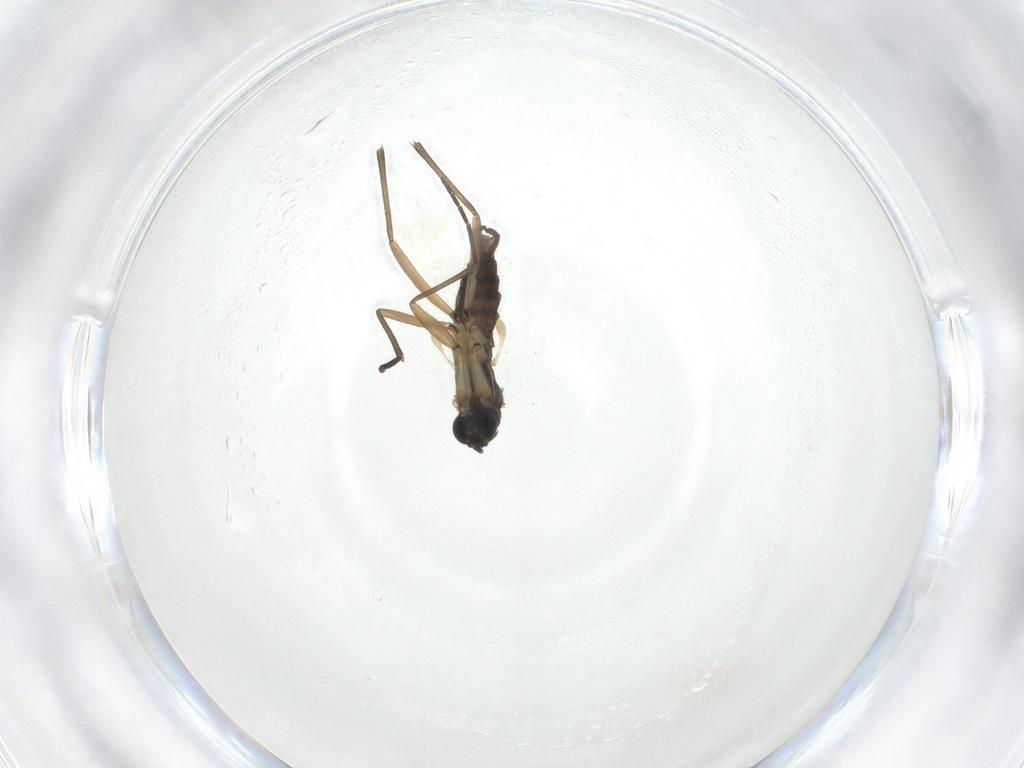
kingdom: Animalia
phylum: Arthropoda
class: Insecta
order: Diptera
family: Sciaridae
